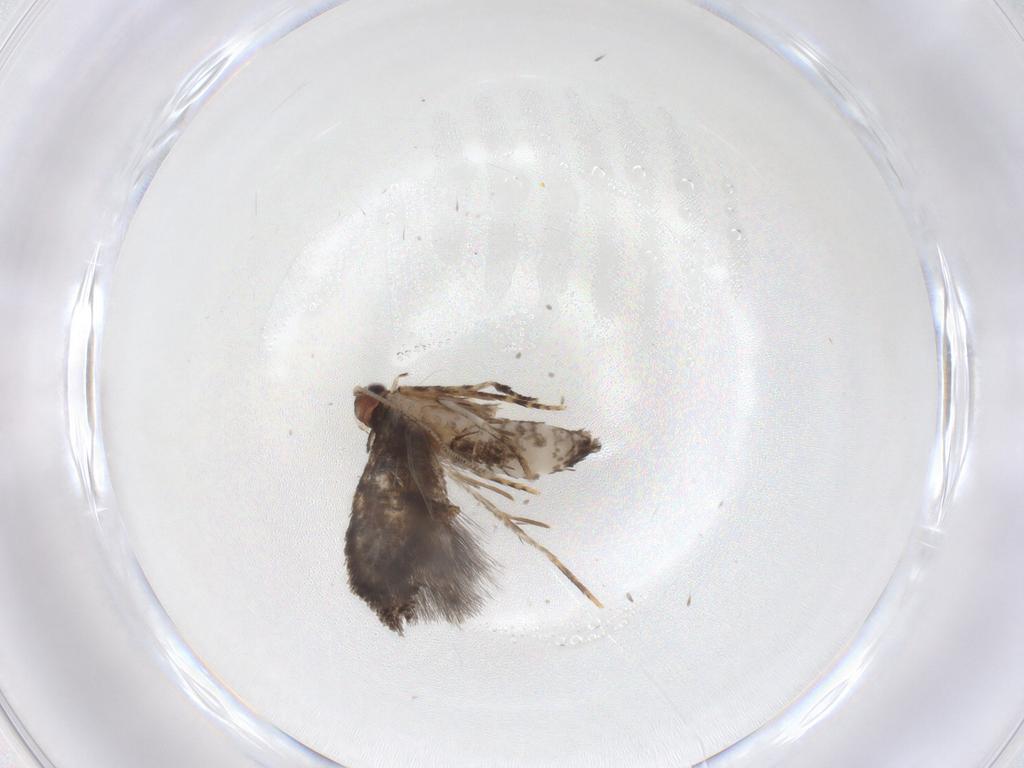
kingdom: Animalia
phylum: Arthropoda
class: Insecta
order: Lepidoptera
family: Tineidae
